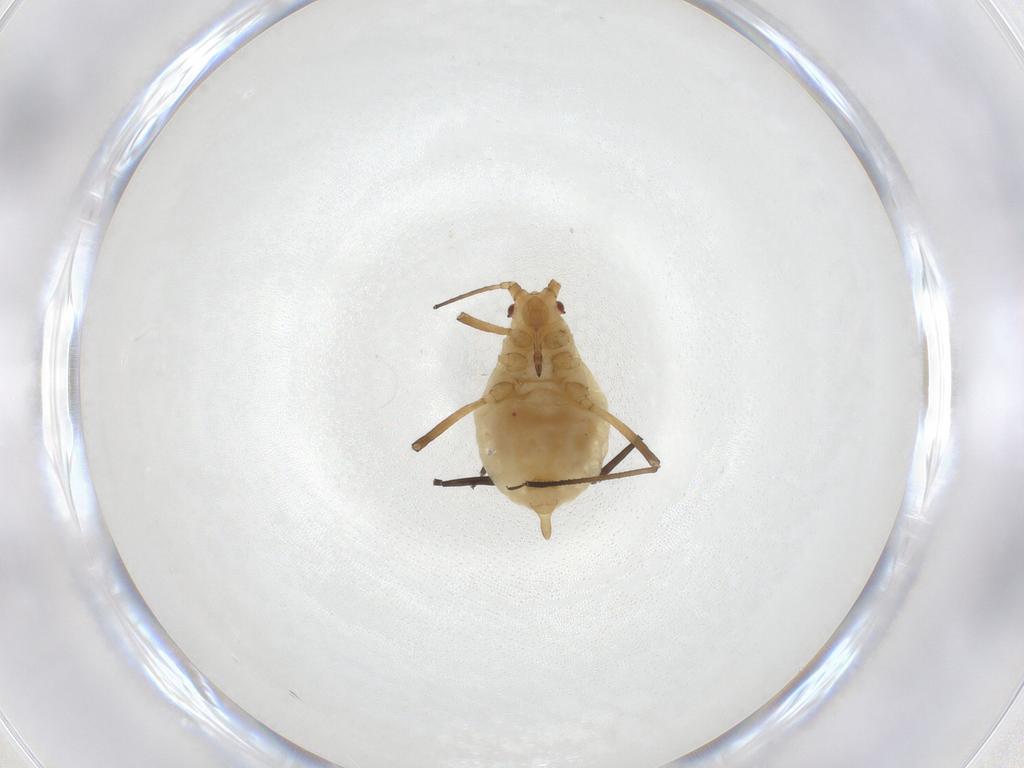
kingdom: Animalia
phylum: Arthropoda
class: Insecta
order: Hemiptera
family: Aphididae
